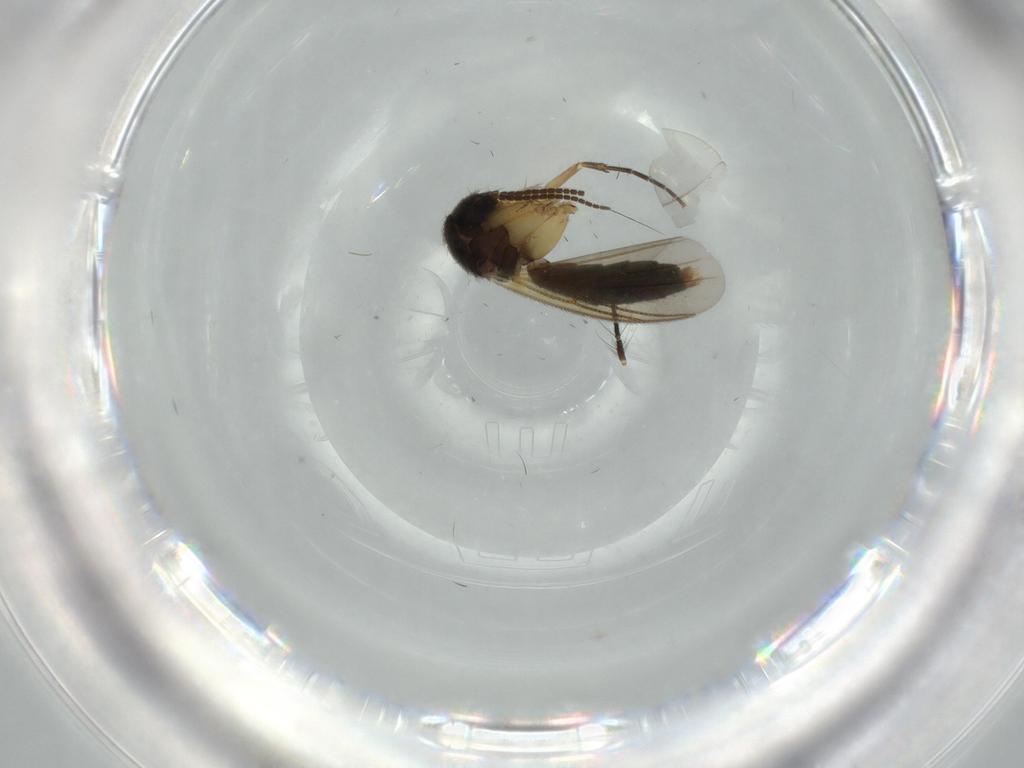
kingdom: Animalia
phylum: Arthropoda
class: Insecta
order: Diptera
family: Mycetophilidae
